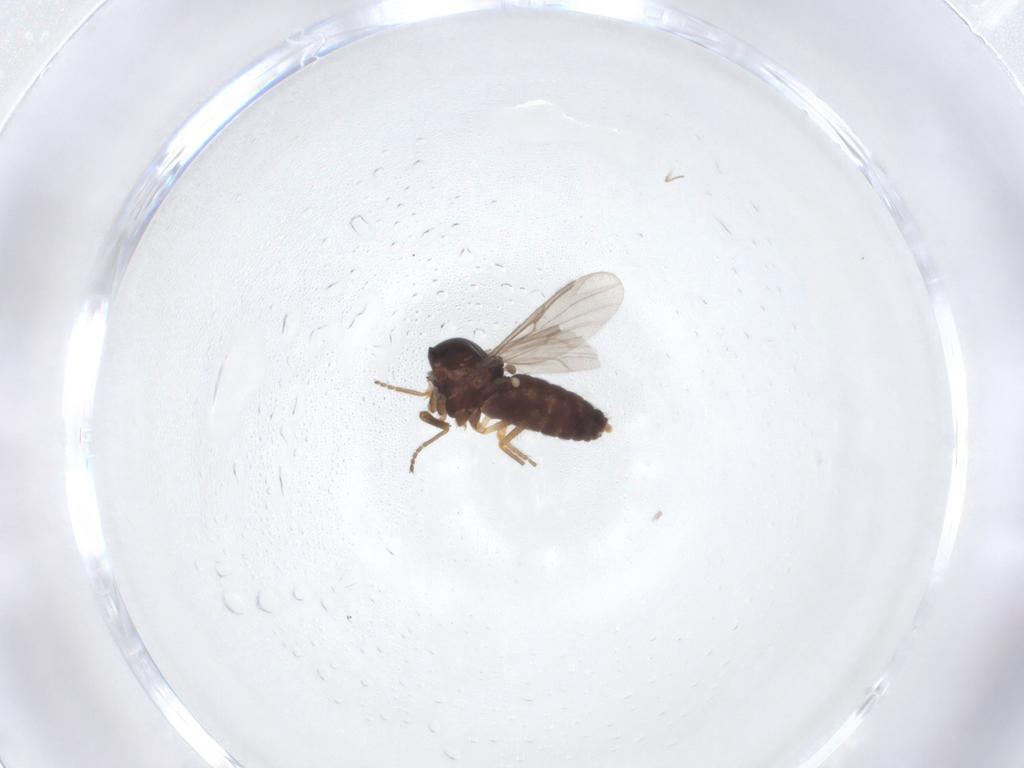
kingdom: Animalia
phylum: Arthropoda
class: Insecta
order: Diptera
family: Ceratopogonidae
